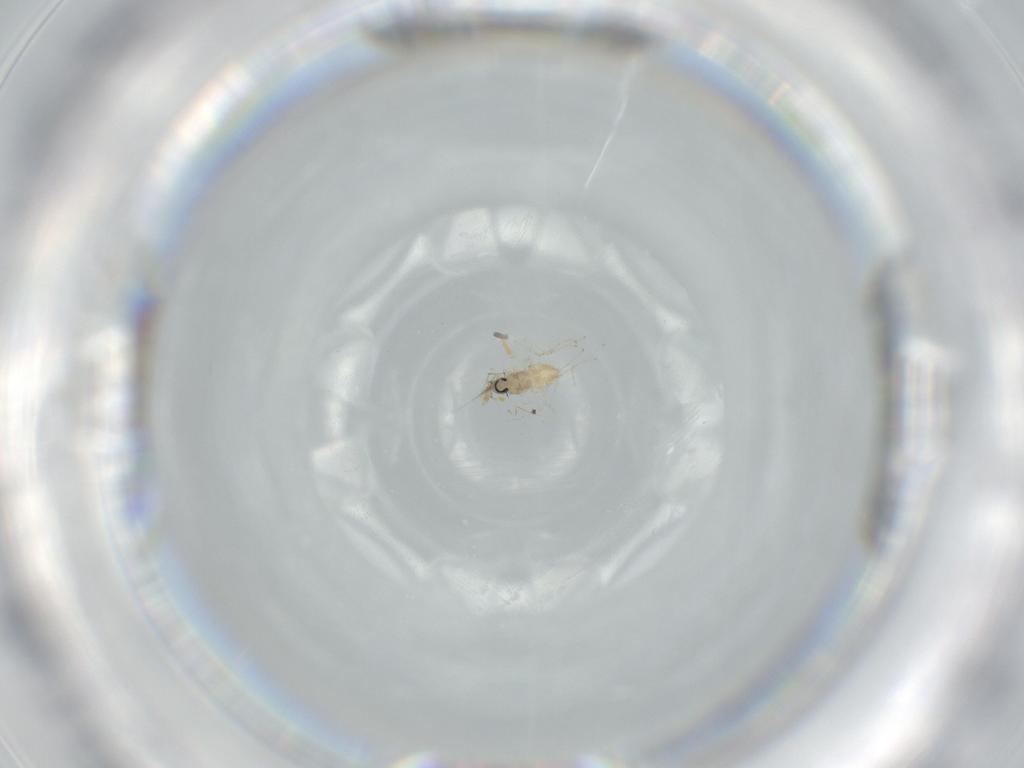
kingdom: Animalia
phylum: Arthropoda
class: Insecta
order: Diptera
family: Cecidomyiidae
